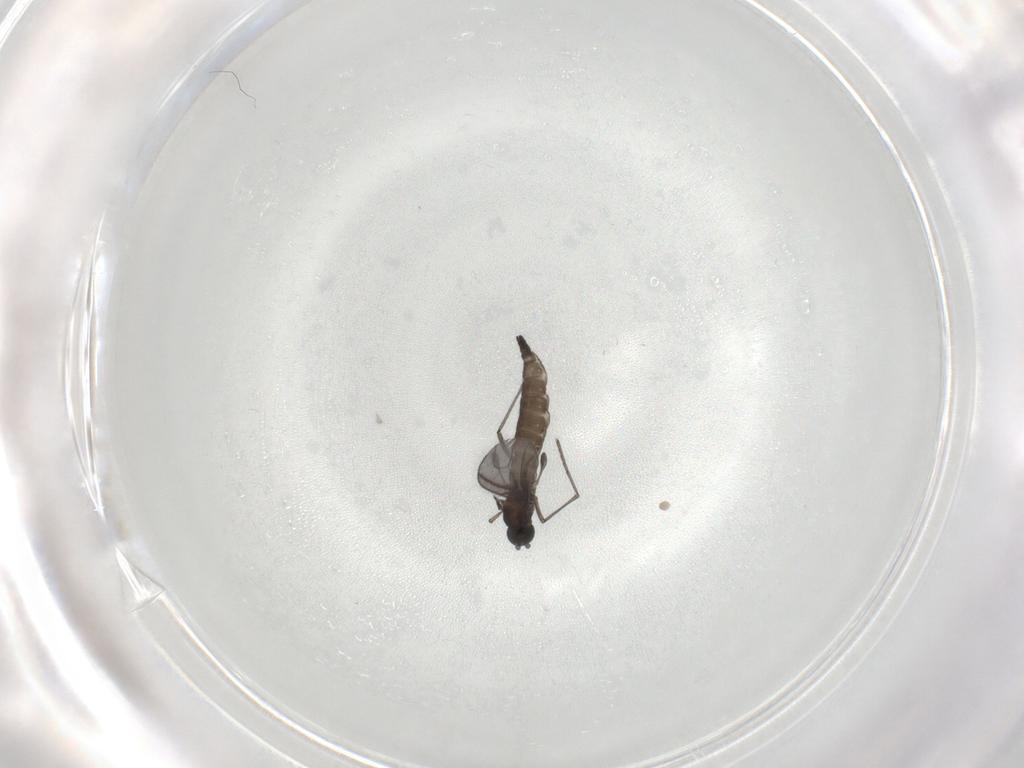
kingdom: Animalia
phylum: Arthropoda
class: Insecta
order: Diptera
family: Sciaridae
